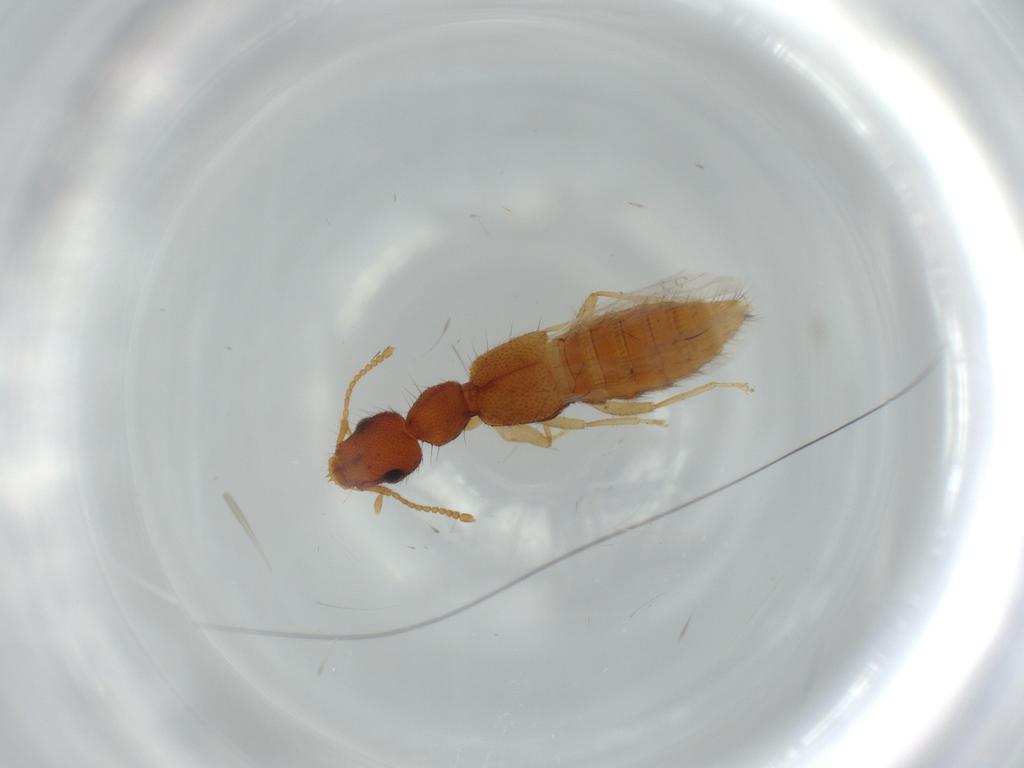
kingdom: Animalia
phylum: Arthropoda
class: Insecta
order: Coleoptera
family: Staphylinidae
